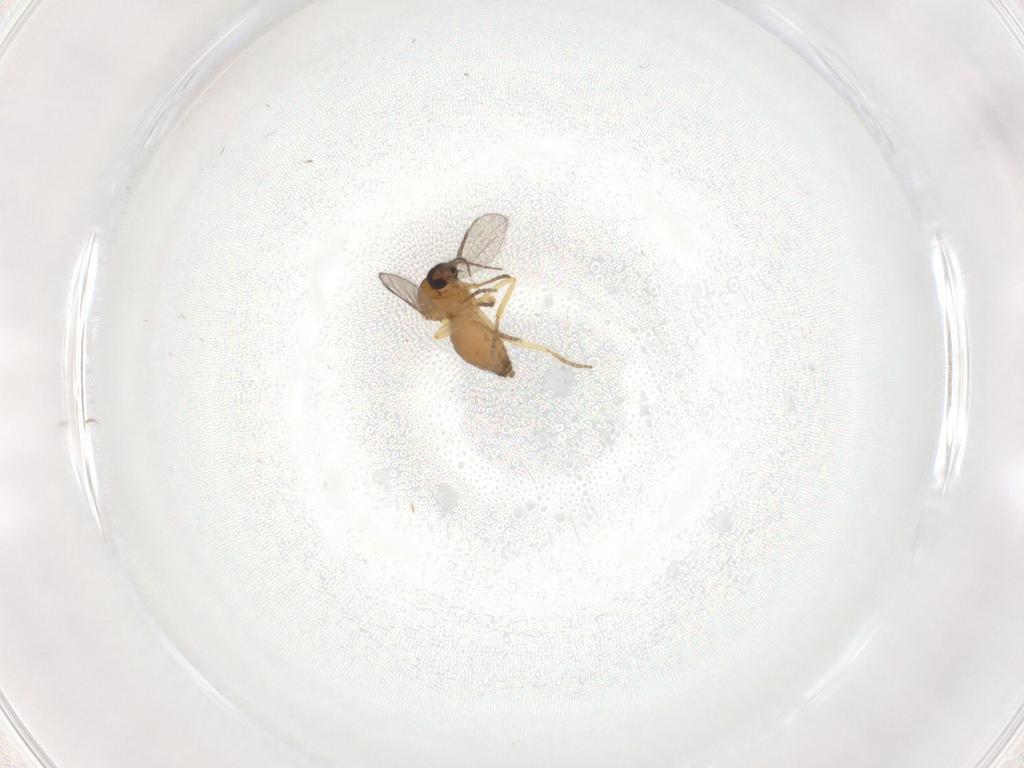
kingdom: Animalia
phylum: Arthropoda
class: Insecta
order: Diptera
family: Ceratopogonidae
